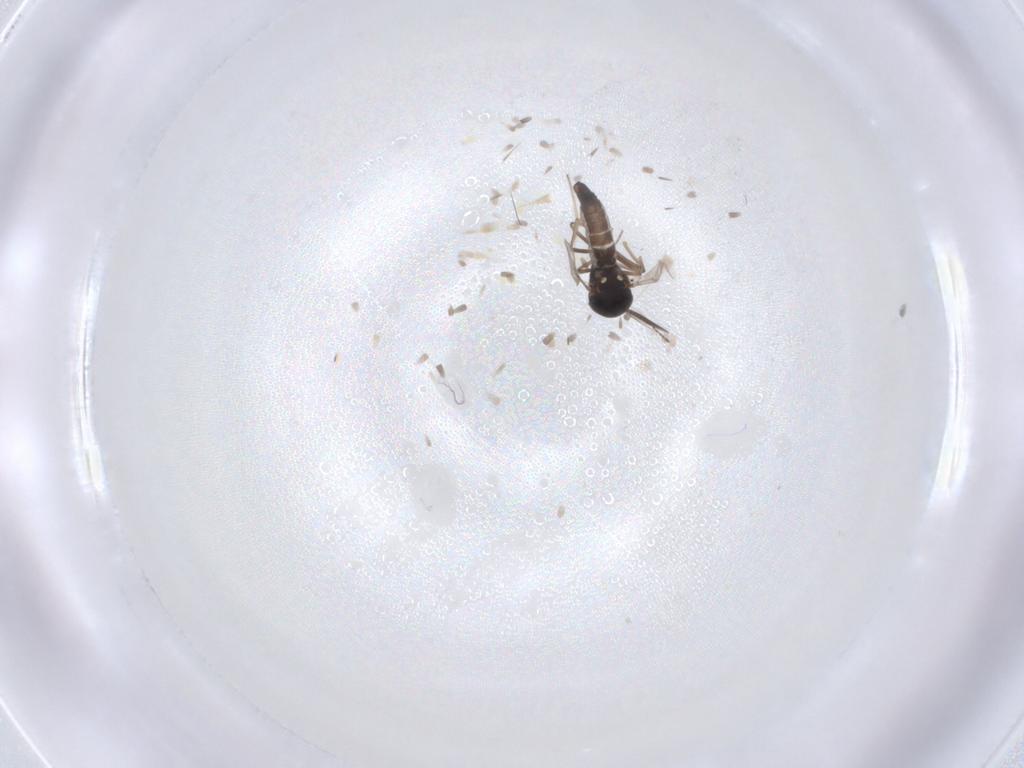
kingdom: Animalia
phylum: Arthropoda
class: Insecta
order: Diptera
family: Ceratopogonidae
